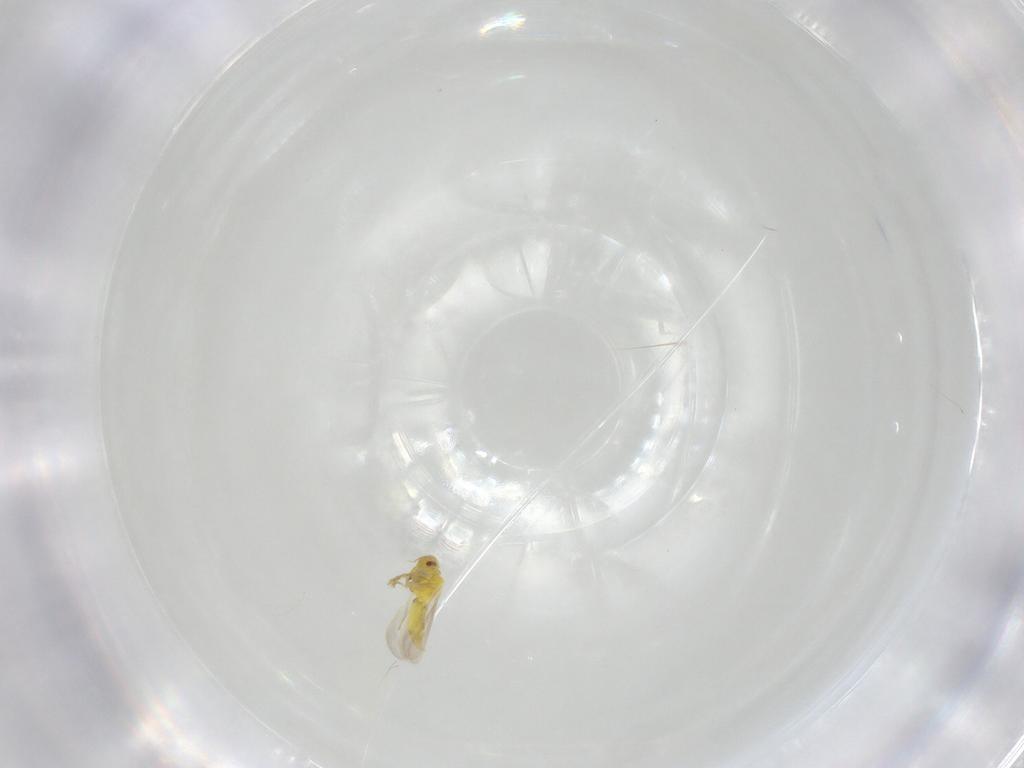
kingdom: Animalia
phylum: Arthropoda
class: Insecta
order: Hemiptera
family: Aleyrodidae
